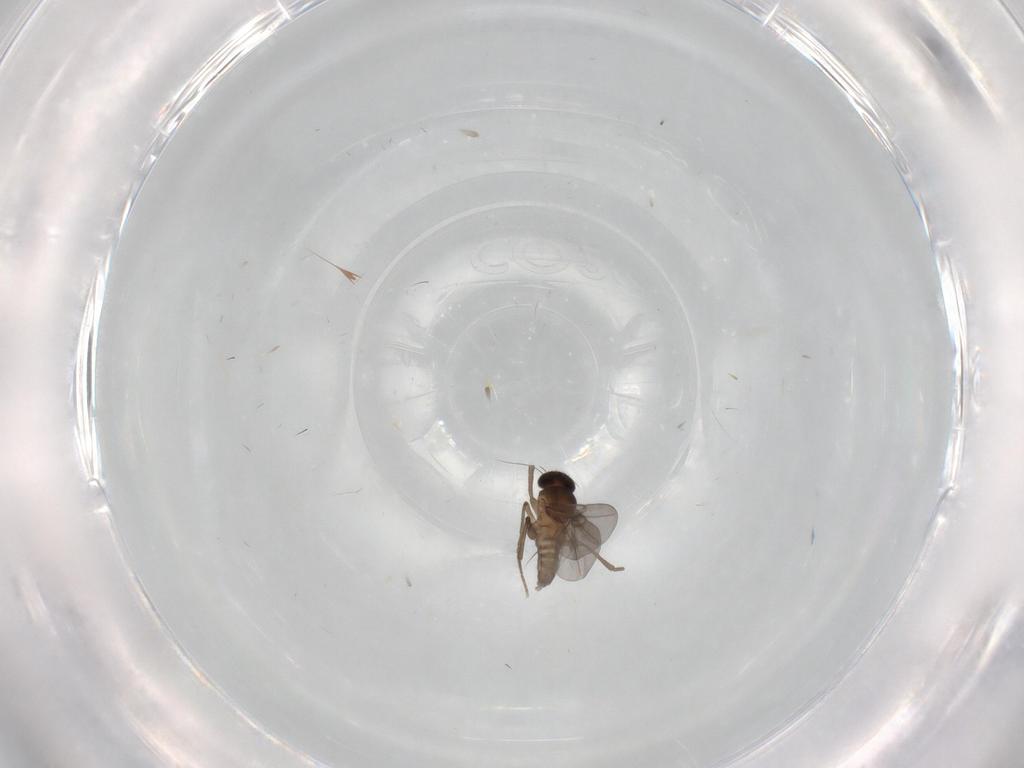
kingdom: Animalia
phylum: Arthropoda
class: Insecta
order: Diptera
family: Phoridae
